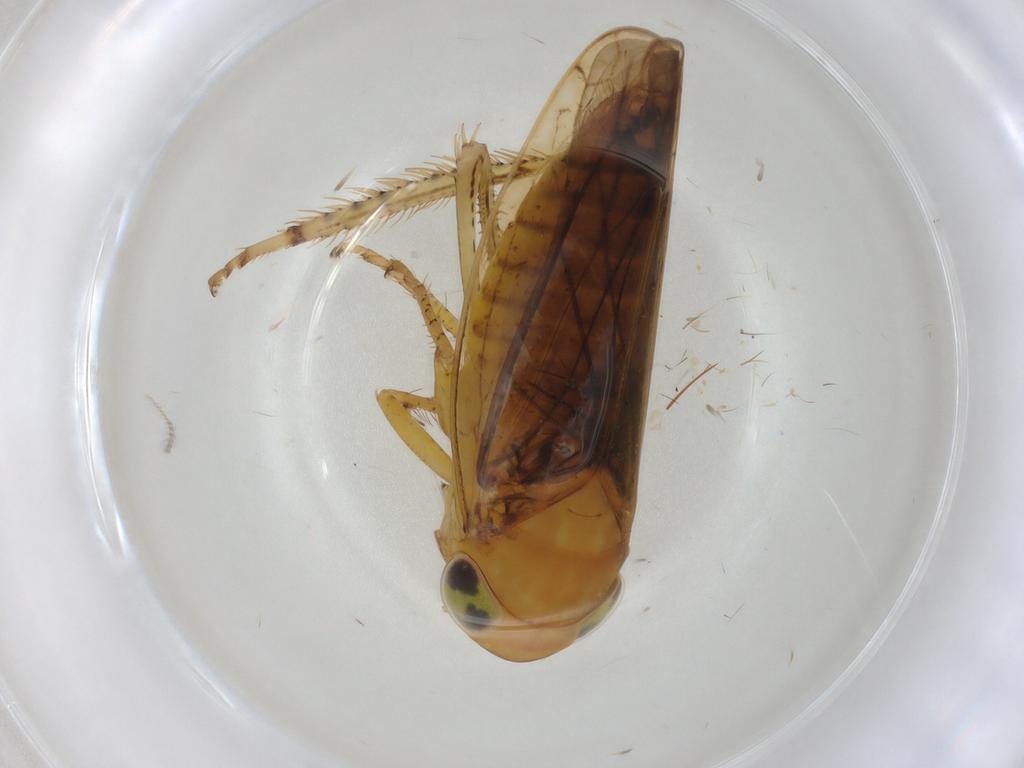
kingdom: Animalia
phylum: Arthropoda
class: Insecta
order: Hemiptera
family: Cicadellidae
